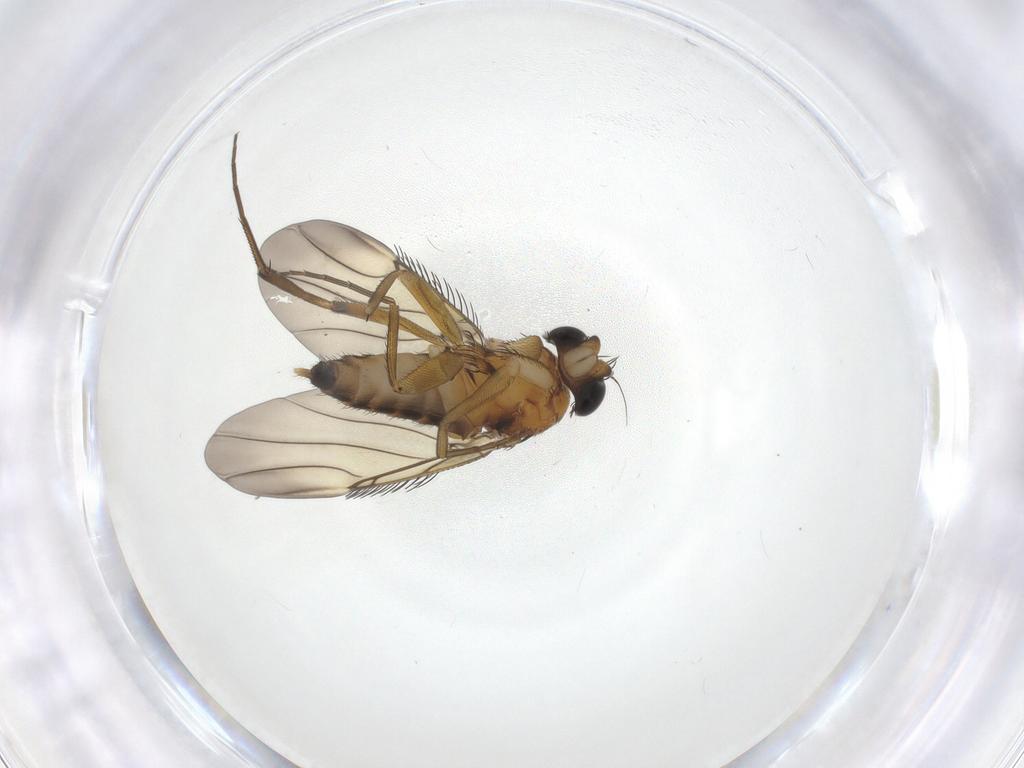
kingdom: Animalia
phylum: Arthropoda
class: Insecta
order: Diptera
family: Phoridae
